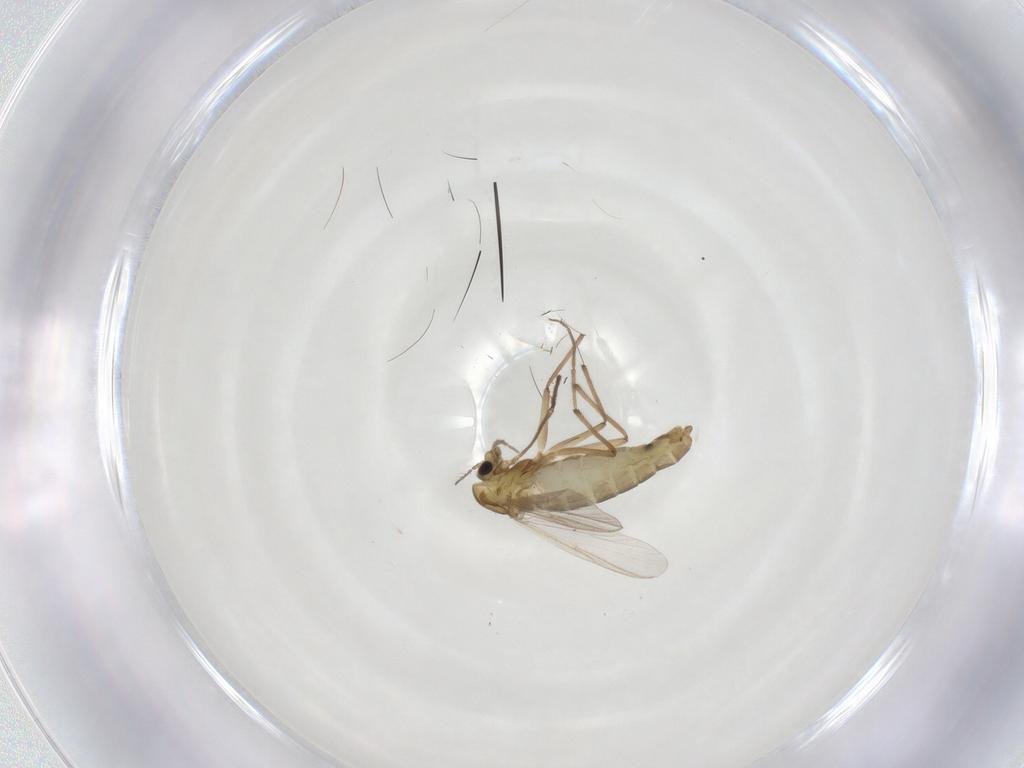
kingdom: Animalia
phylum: Arthropoda
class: Insecta
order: Diptera
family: Chironomidae
